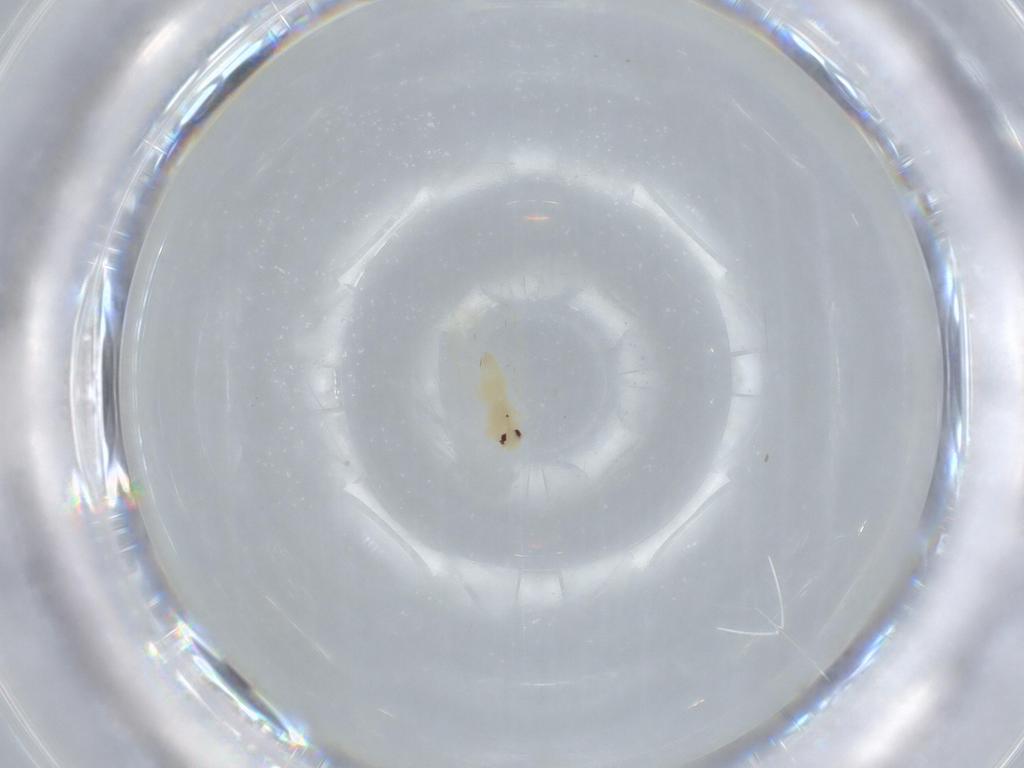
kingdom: Animalia
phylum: Arthropoda
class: Insecta
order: Hemiptera
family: Aleyrodidae
